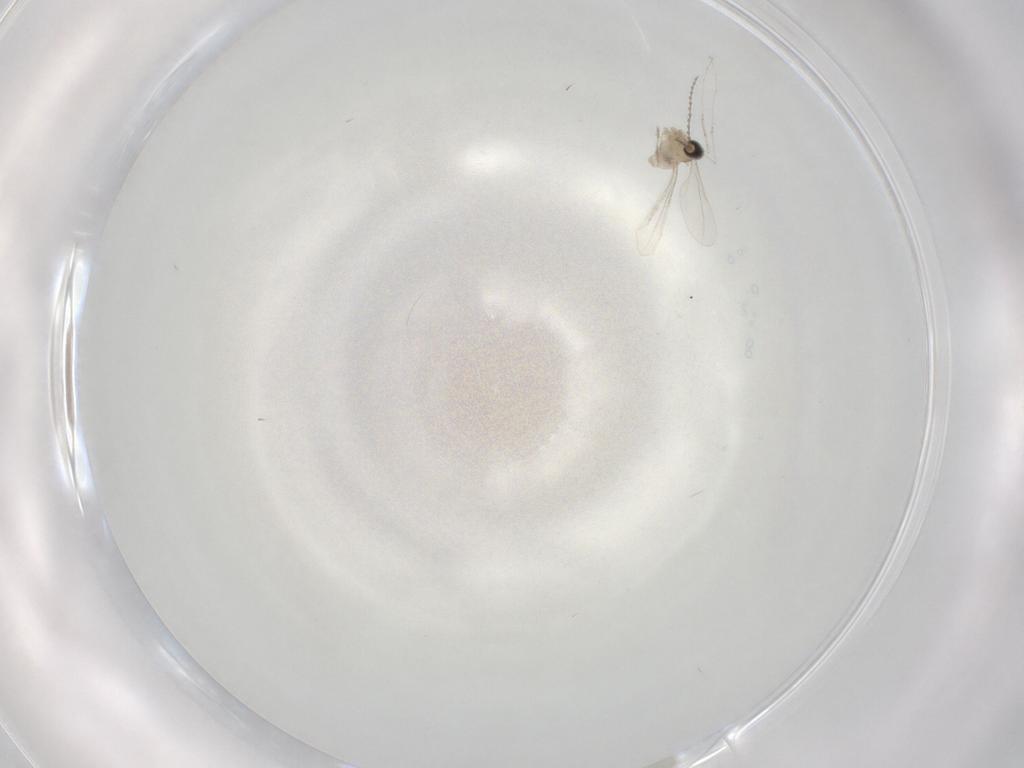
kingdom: Animalia
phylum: Arthropoda
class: Insecta
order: Diptera
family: Cecidomyiidae
